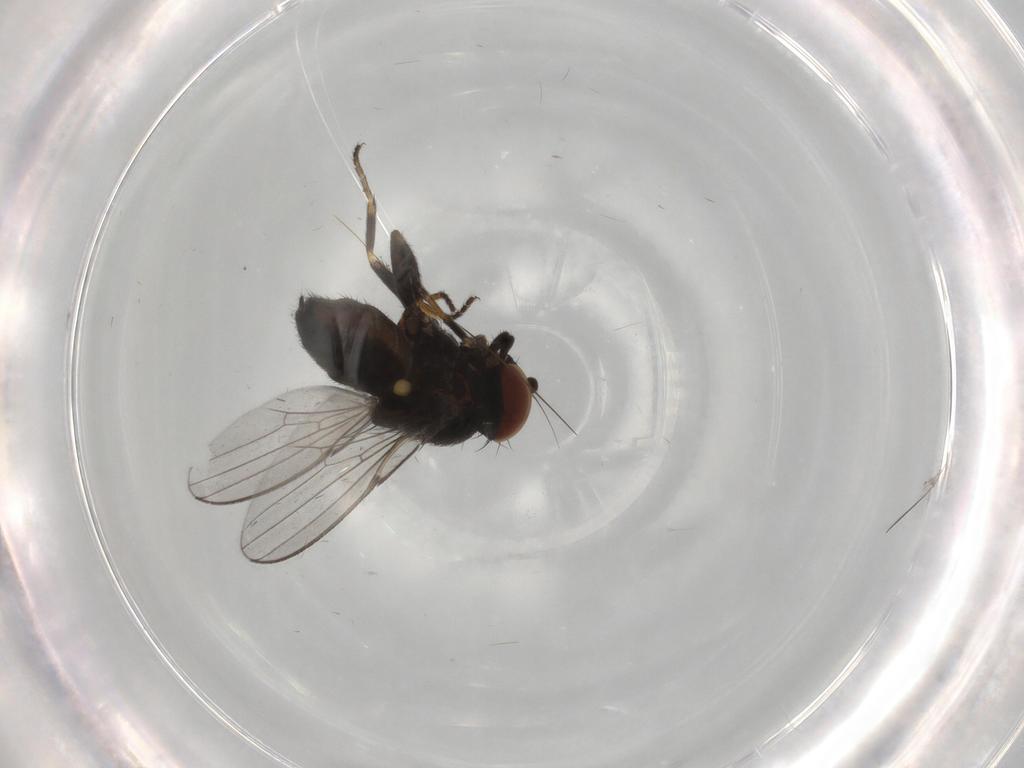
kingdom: Animalia
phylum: Arthropoda
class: Insecta
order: Diptera
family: Milichiidae
